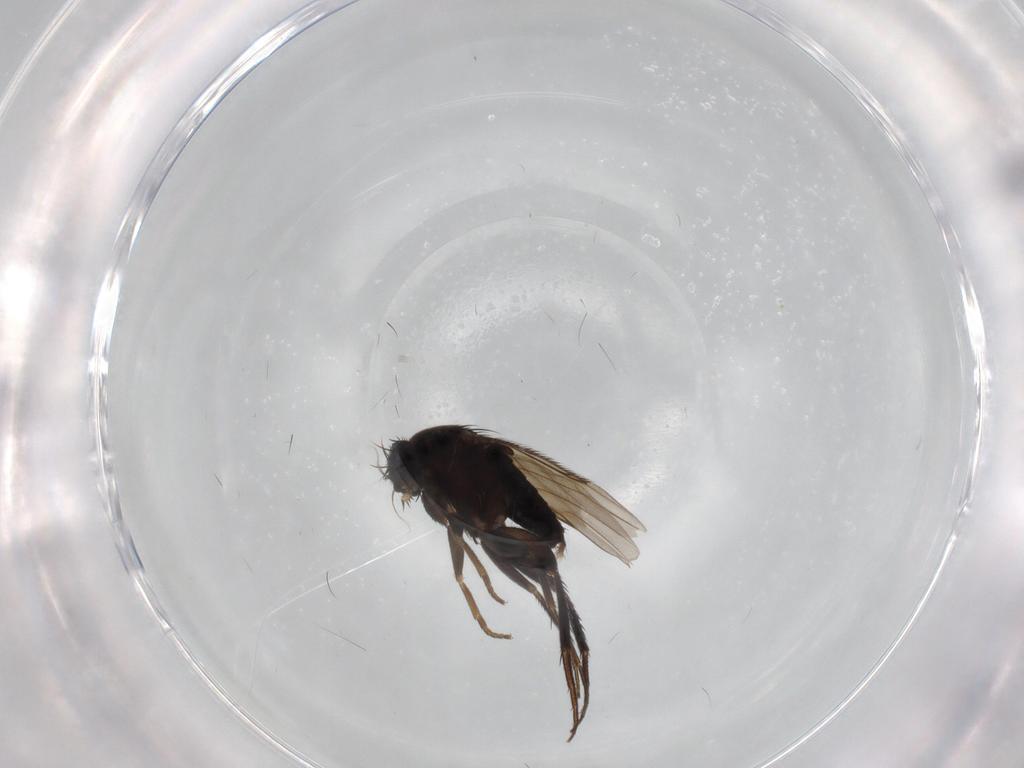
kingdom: Animalia
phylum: Arthropoda
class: Insecta
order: Diptera
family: Phoridae
